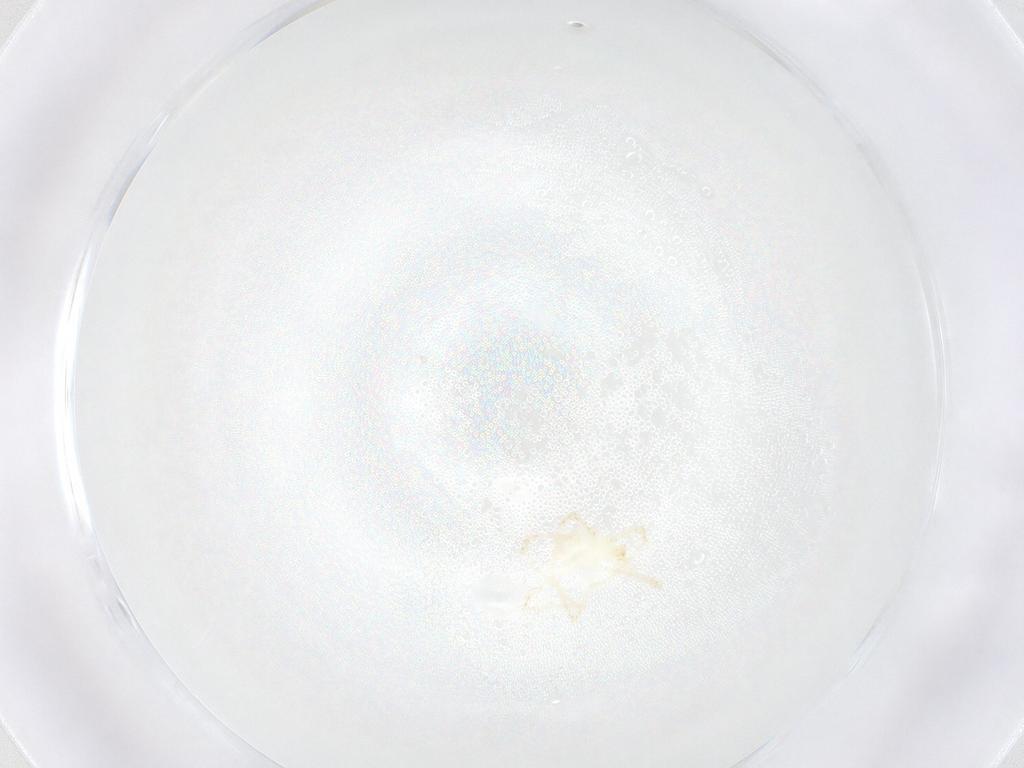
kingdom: Animalia
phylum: Arthropoda
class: Arachnida
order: Trombidiformes
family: Erythraeidae
